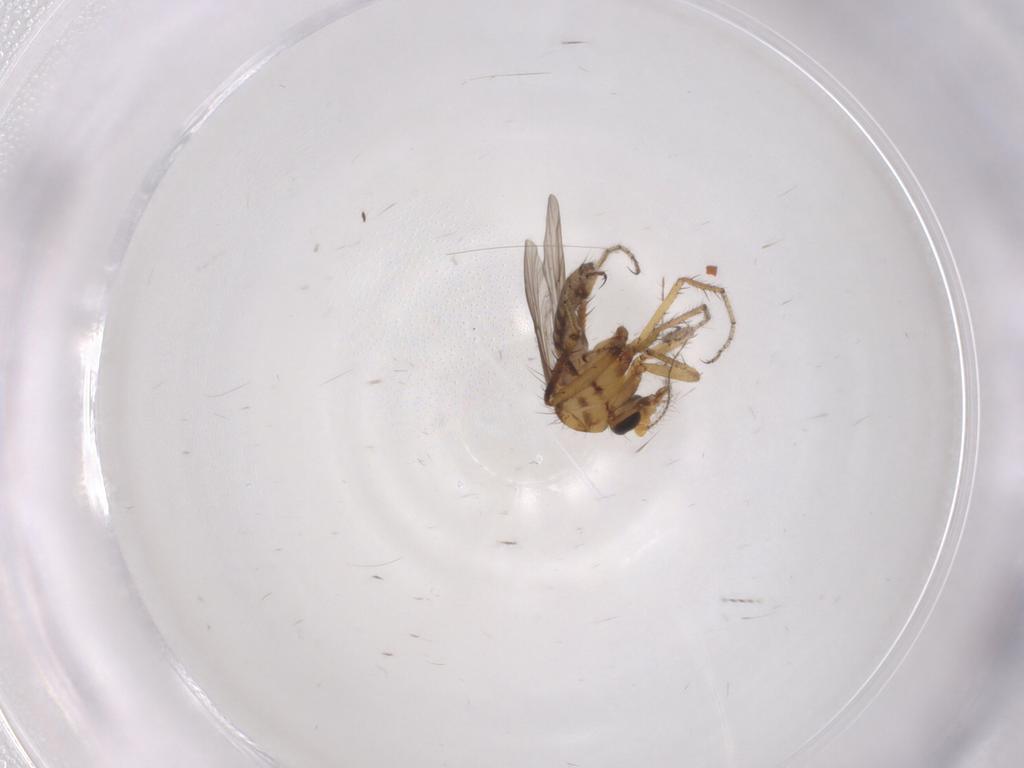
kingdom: Animalia
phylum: Arthropoda
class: Insecta
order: Diptera
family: Ceratopogonidae
